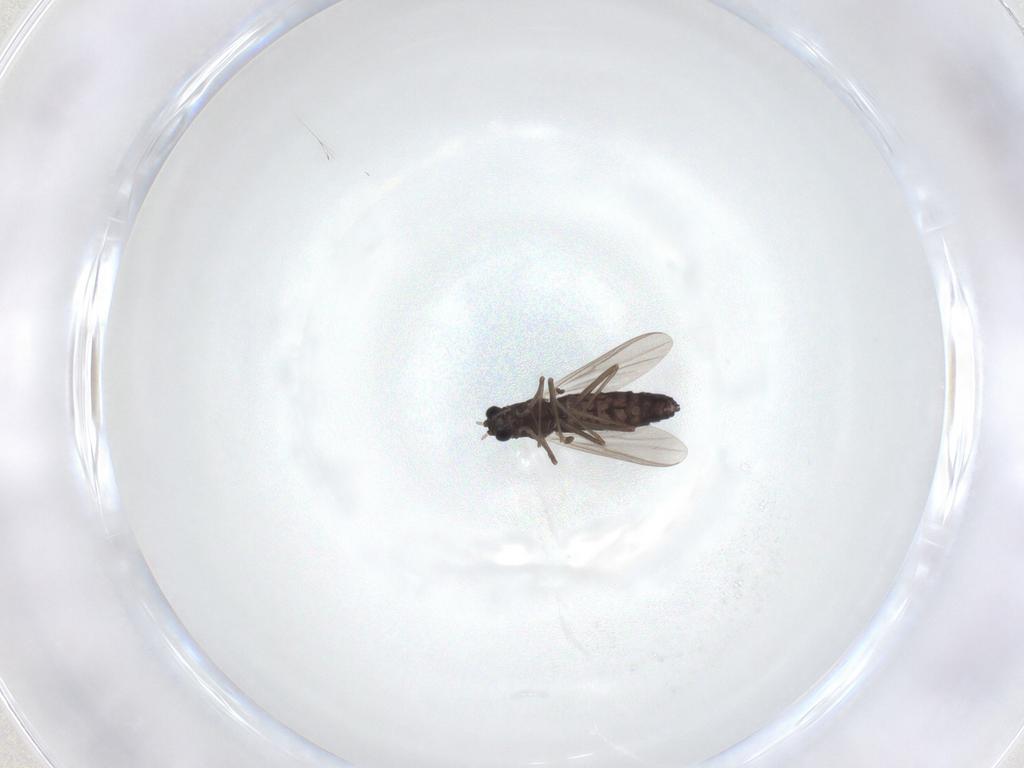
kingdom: Animalia
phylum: Arthropoda
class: Insecta
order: Diptera
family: Chironomidae
